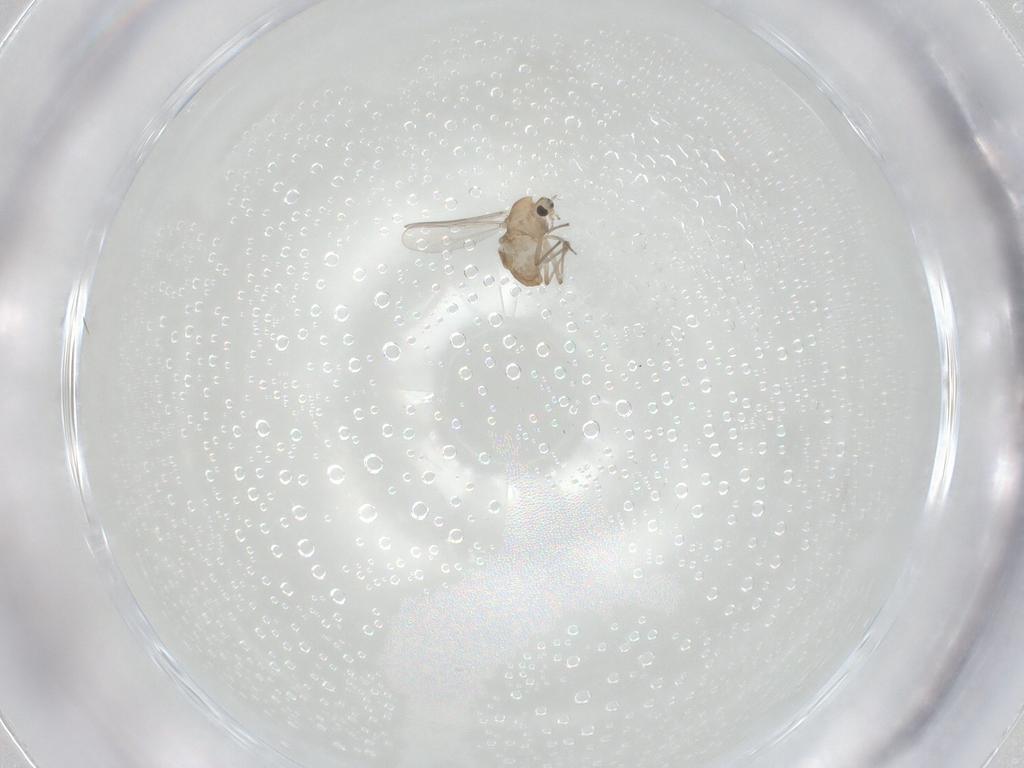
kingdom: Animalia
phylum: Arthropoda
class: Insecta
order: Diptera
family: Chironomidae
